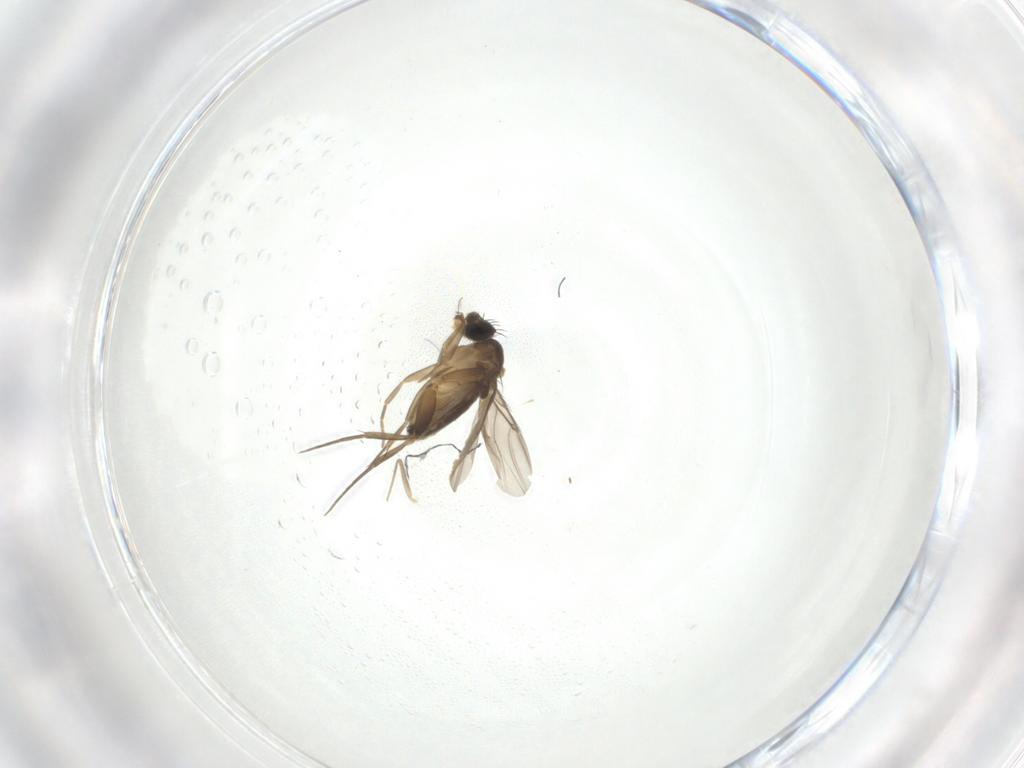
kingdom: Animalia
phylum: Arthropoda
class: Insecta
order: Diptera
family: Phoridae
